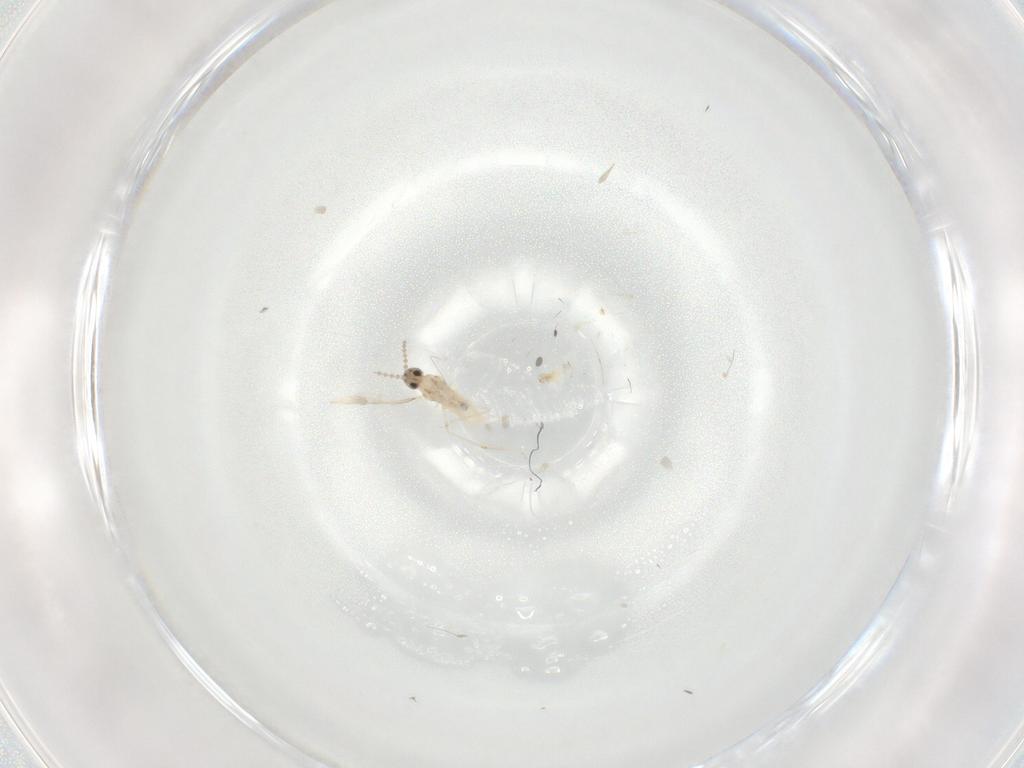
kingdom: Animalia
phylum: Arthropoda
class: Insecta
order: Diptera
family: Cecidomyiidae
